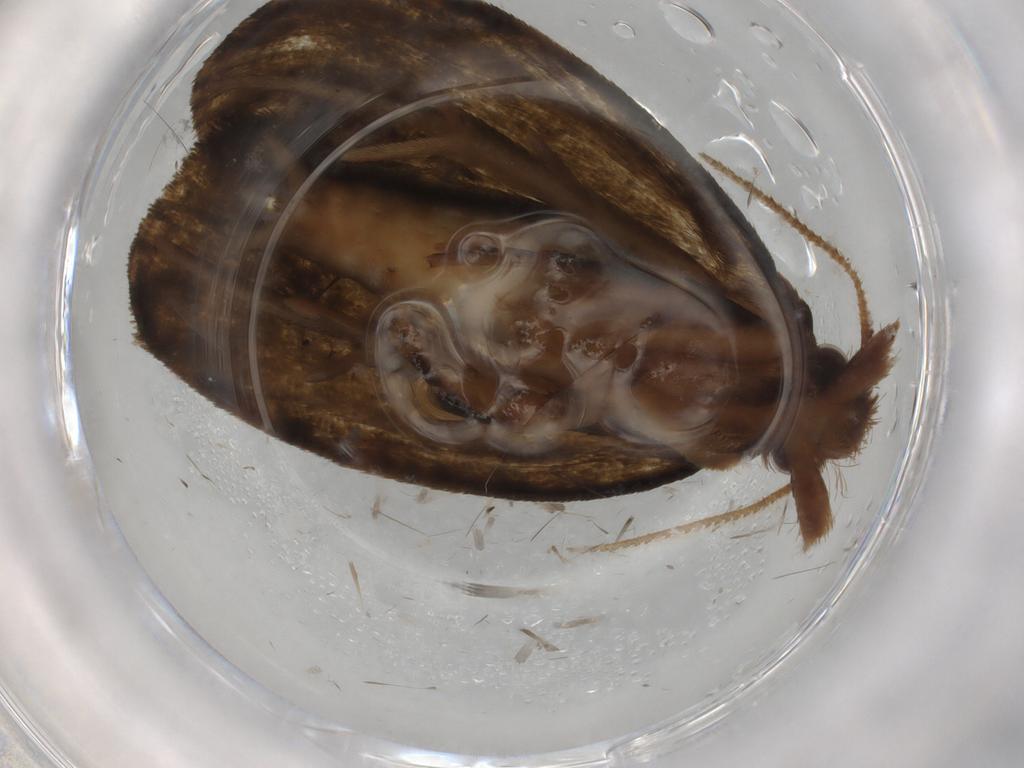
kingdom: Animalia
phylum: Arthropoda
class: Insecta
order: Lepidoptera
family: Geometridae
